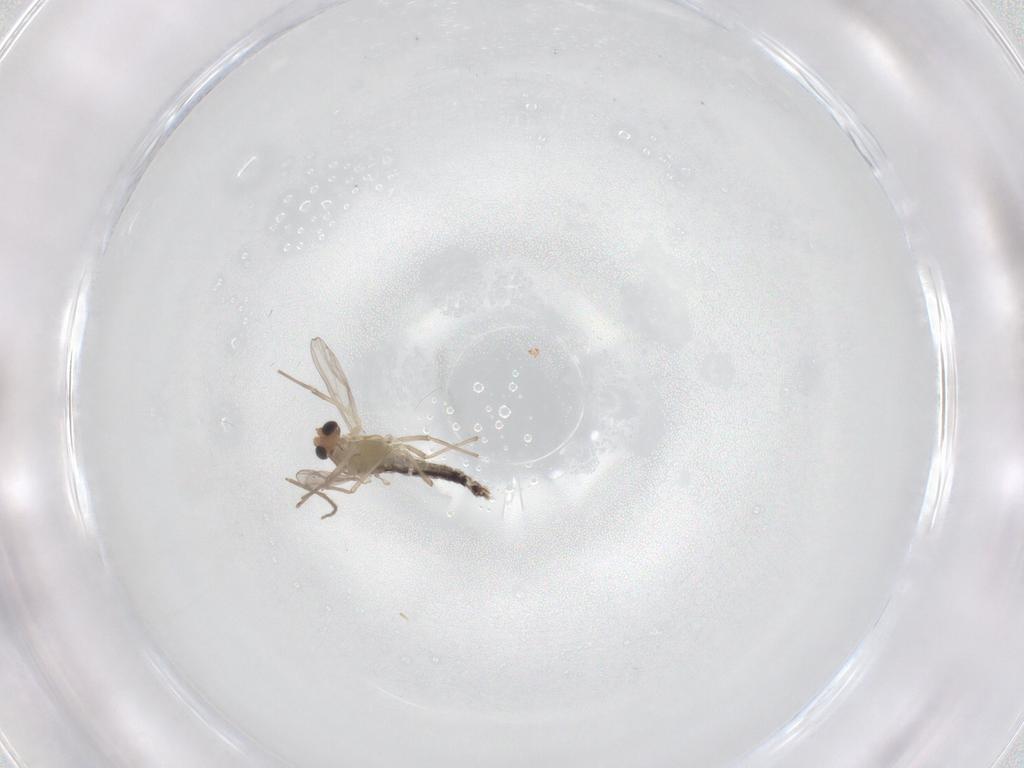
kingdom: Animalia
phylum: Arthropoda
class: Insecta
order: Diptera
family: Chironomidae
